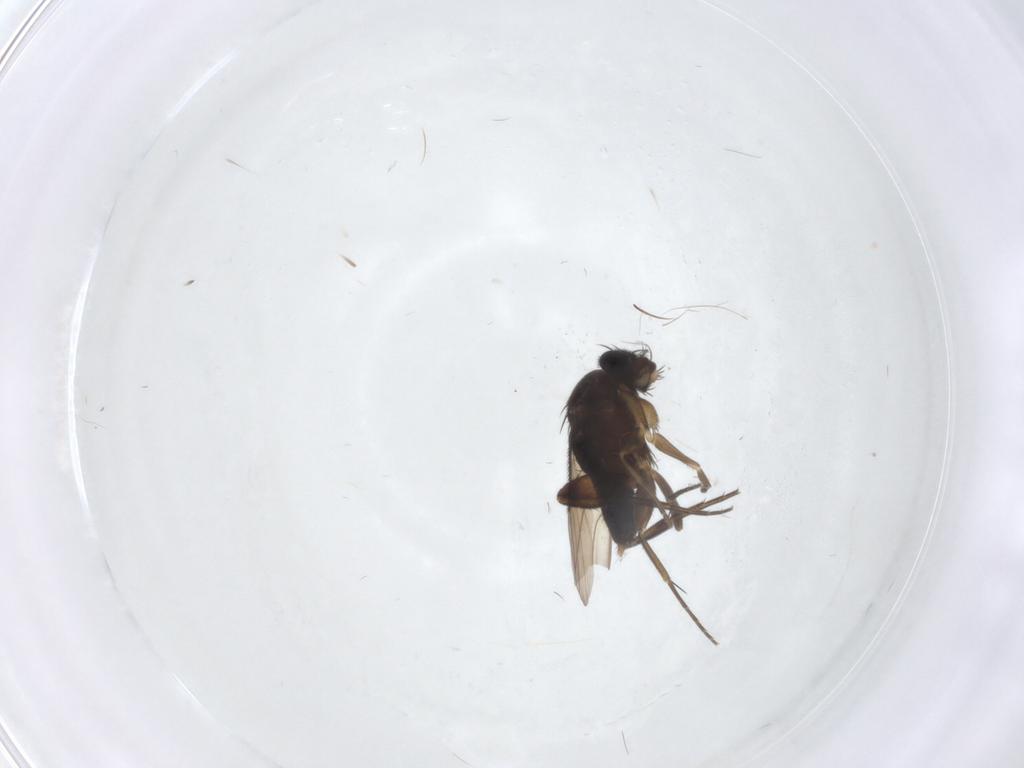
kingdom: Animalia
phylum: Arthropoda
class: Insecta
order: Diptera
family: Phoridae
